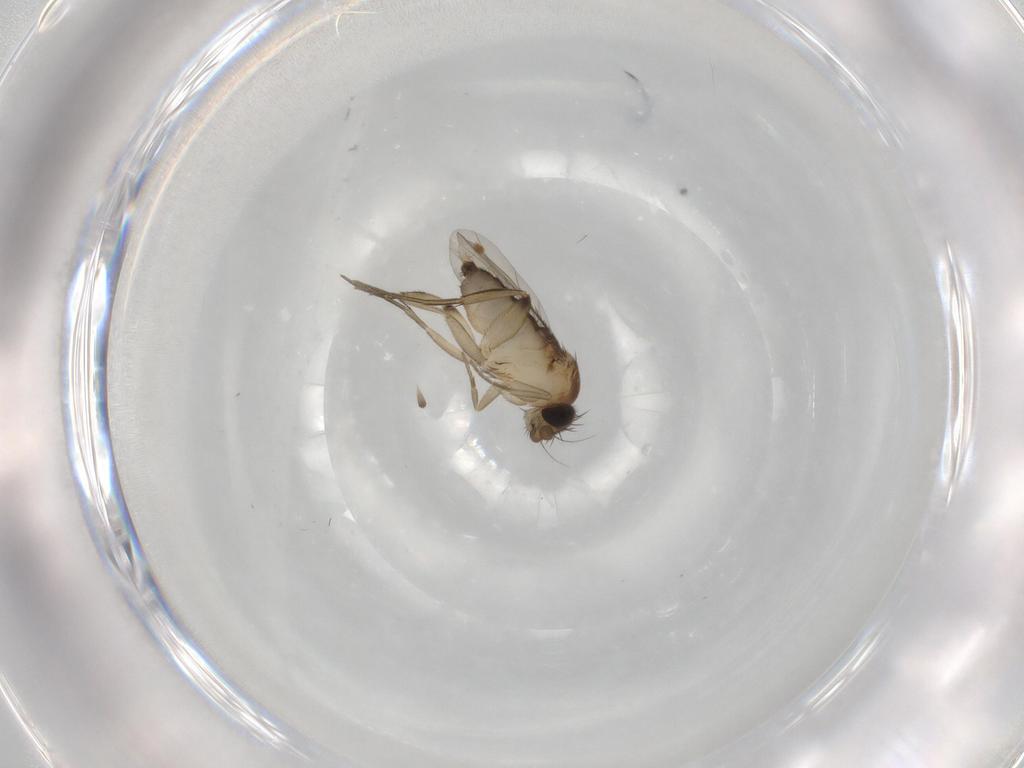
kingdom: Animalia
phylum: Arthropoda
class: Insecta
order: Diptera
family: Phoridae
